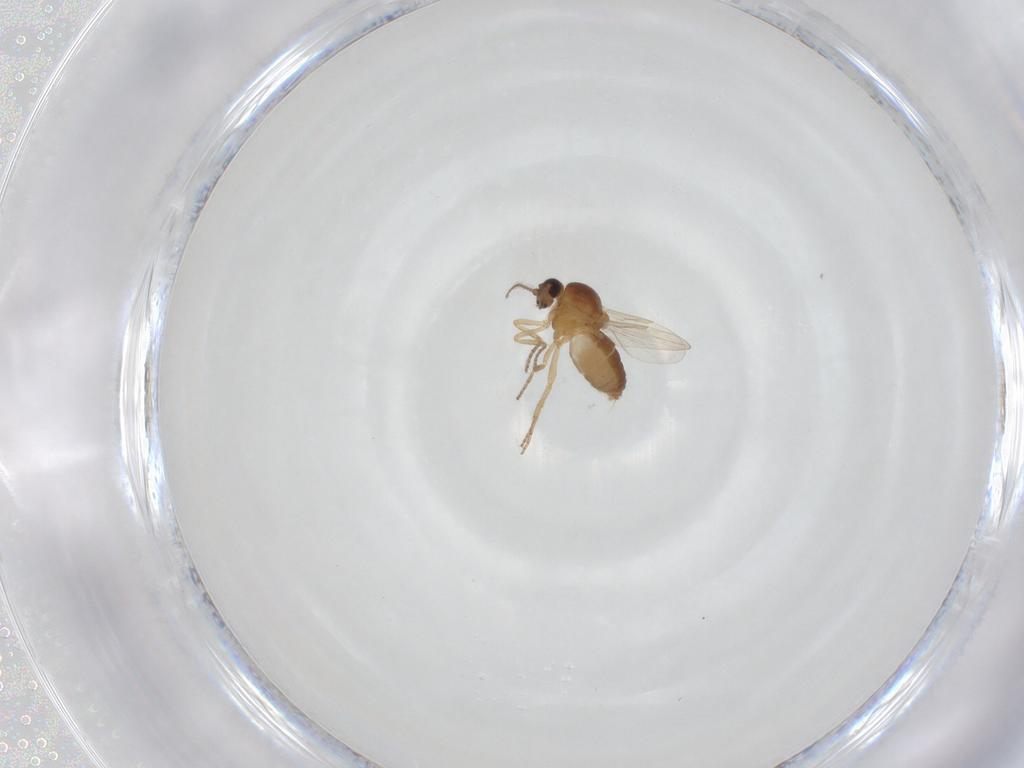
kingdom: Animalia
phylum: Arthropoda
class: Insecta
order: Diptera
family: Ceratopogonidae
